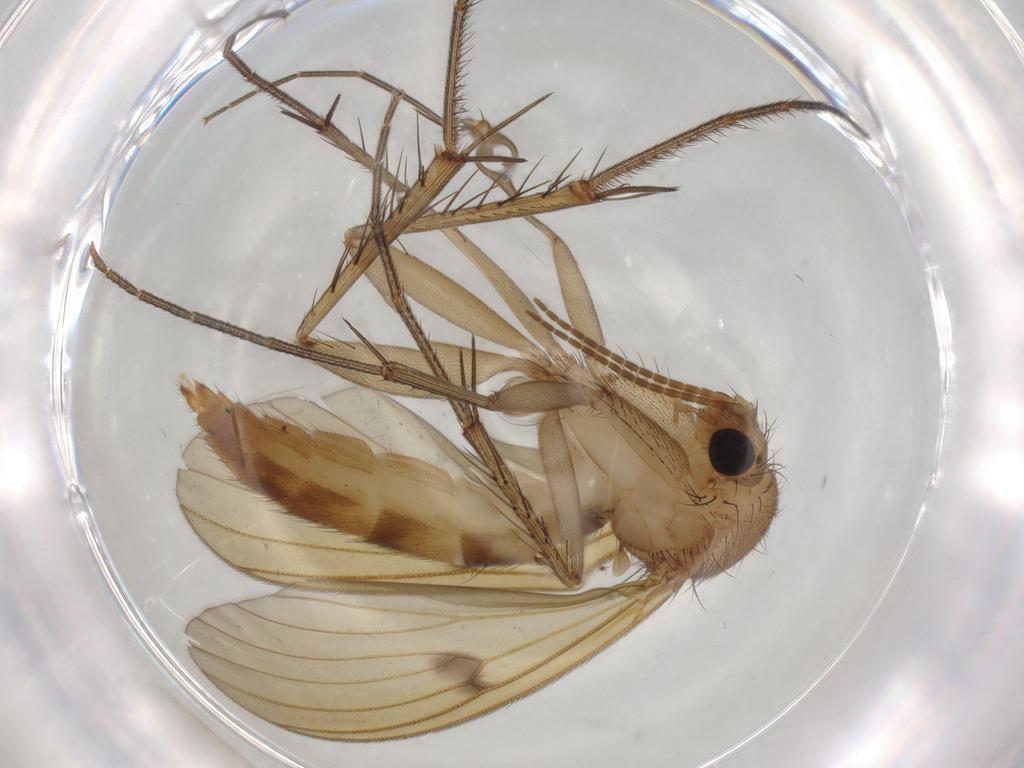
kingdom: Animalia
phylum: Arthropoda
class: Insecta
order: Diptera
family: Mycetophilidae
